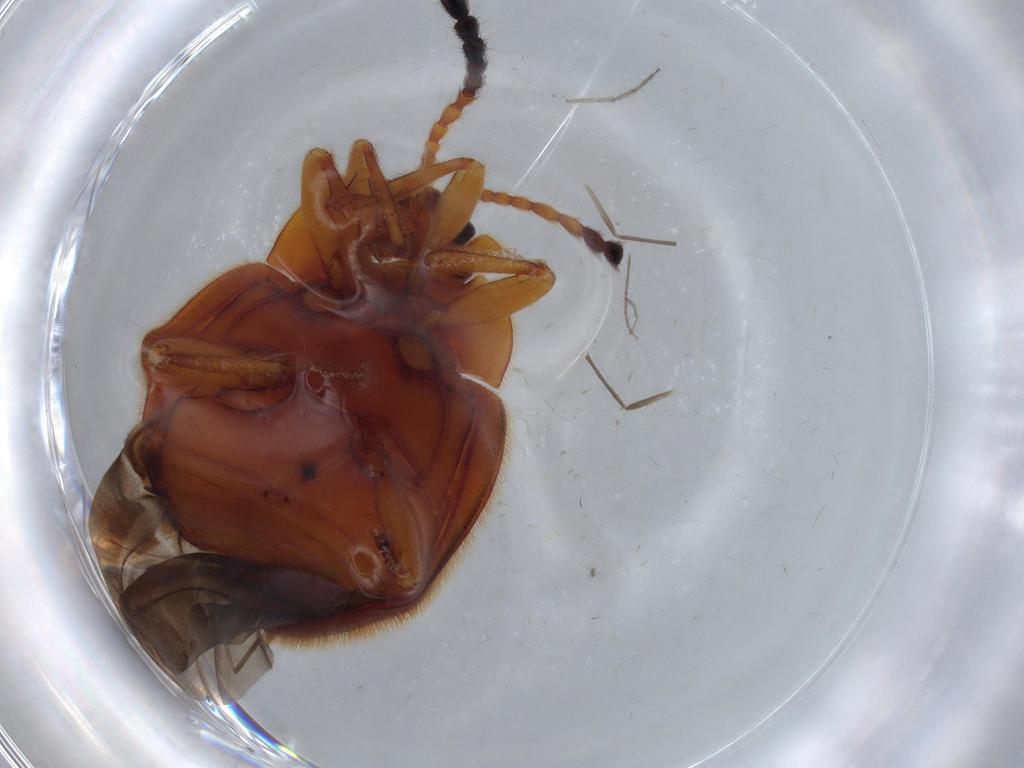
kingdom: Animalia
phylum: Arthropoda
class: Insecta
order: Coleoptera
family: Endomychidae
